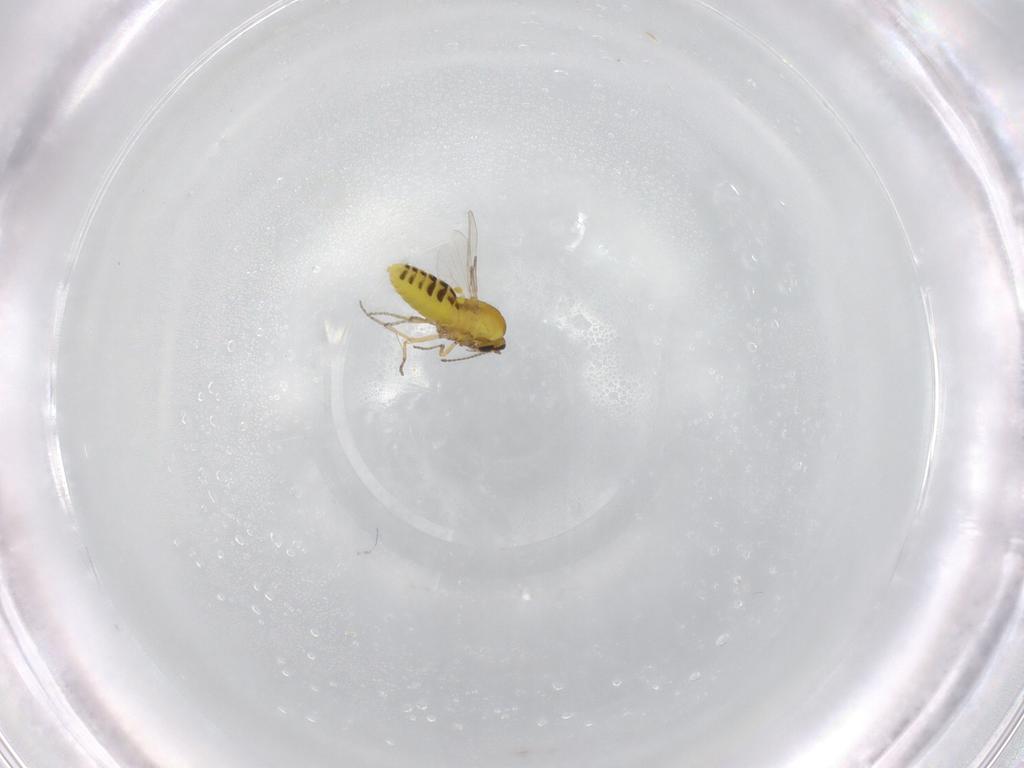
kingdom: Animalia
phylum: Arthropoda
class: Insecta
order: Diptera
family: Ceratopogonidae
